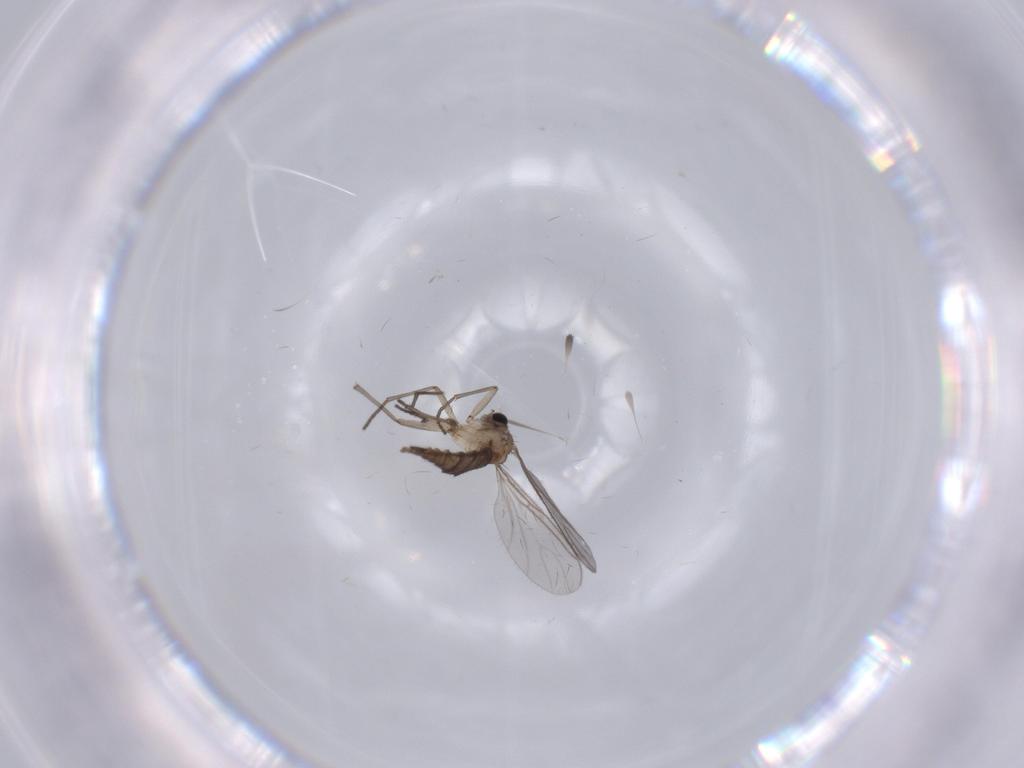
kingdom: Animalia
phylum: Arthropoda
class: Insecta
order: Diptera
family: Sciaridae
